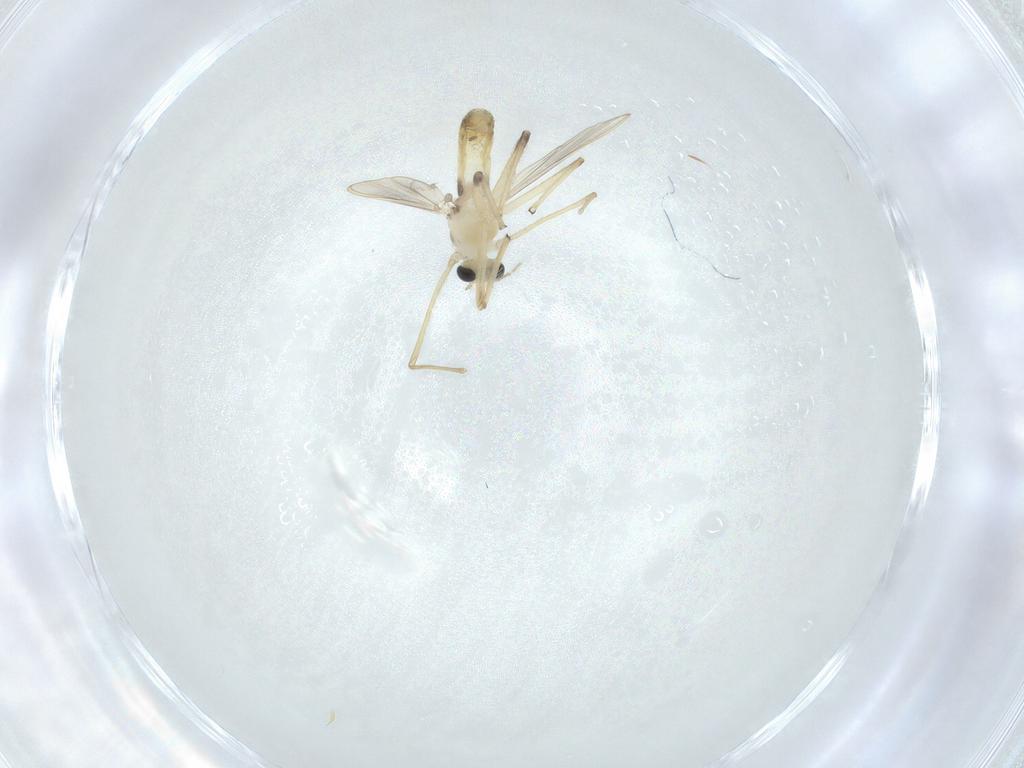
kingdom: Animalia
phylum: Arthropoda
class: Insecta
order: Diptera
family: Chironomidae
